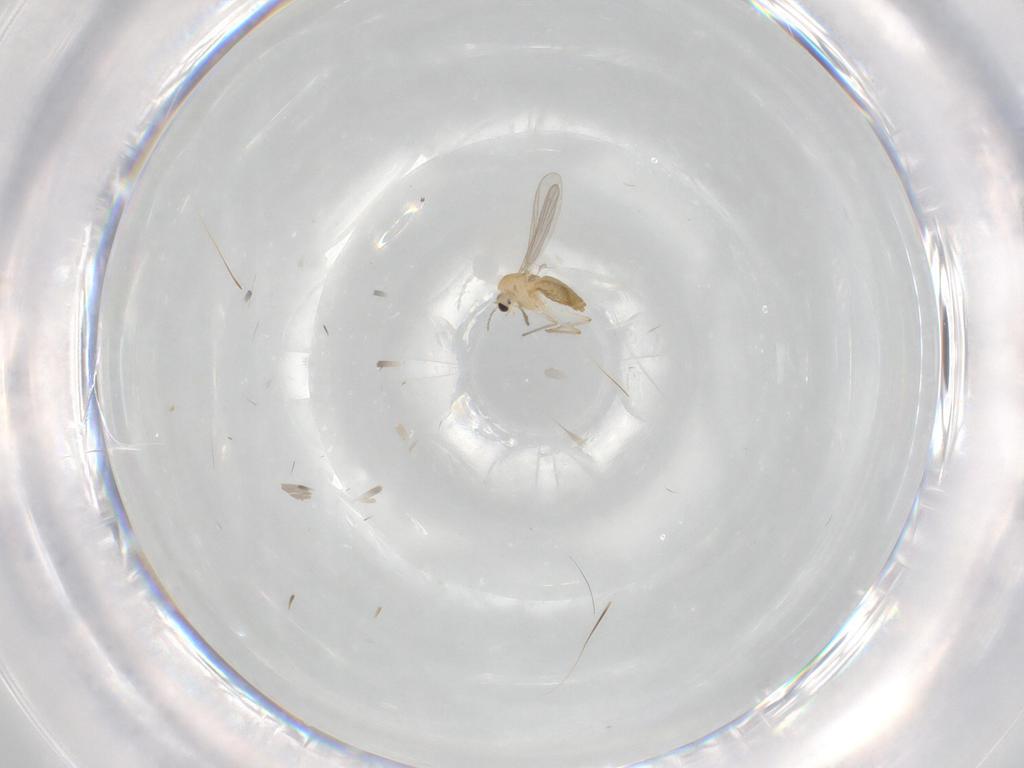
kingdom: Animalia
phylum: Arthropoda
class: Insecta
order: Diptera
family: Chironomidae
